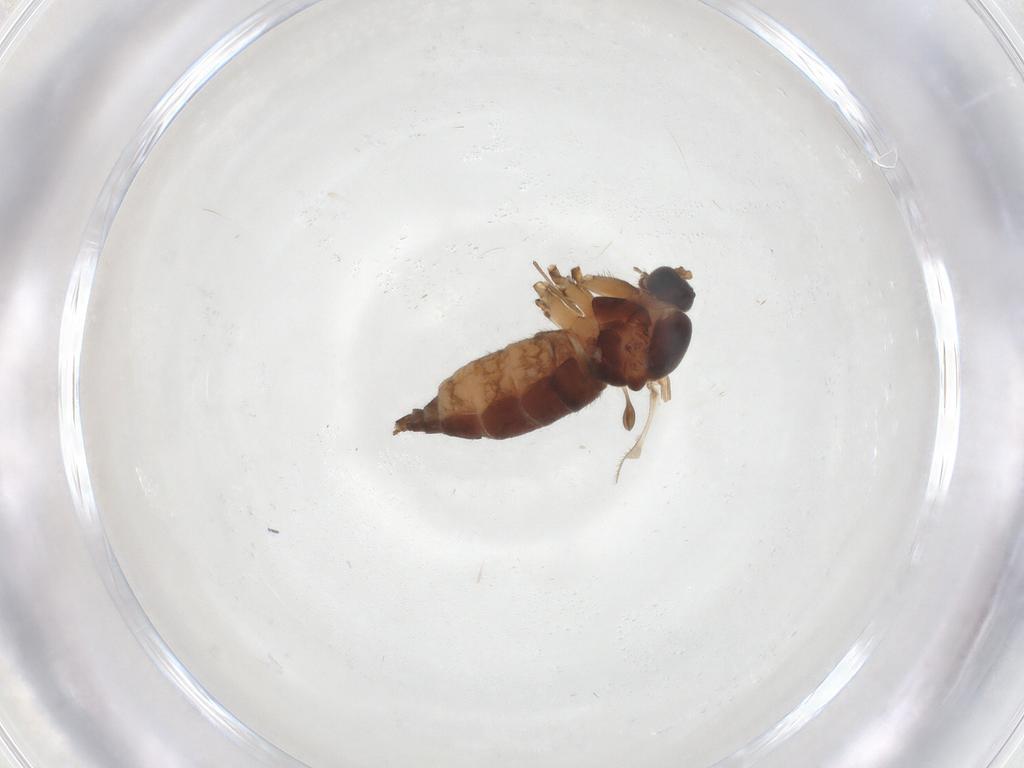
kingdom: Animalia
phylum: Arthropoda
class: Insecta
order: Diptera
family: Sciaridae
